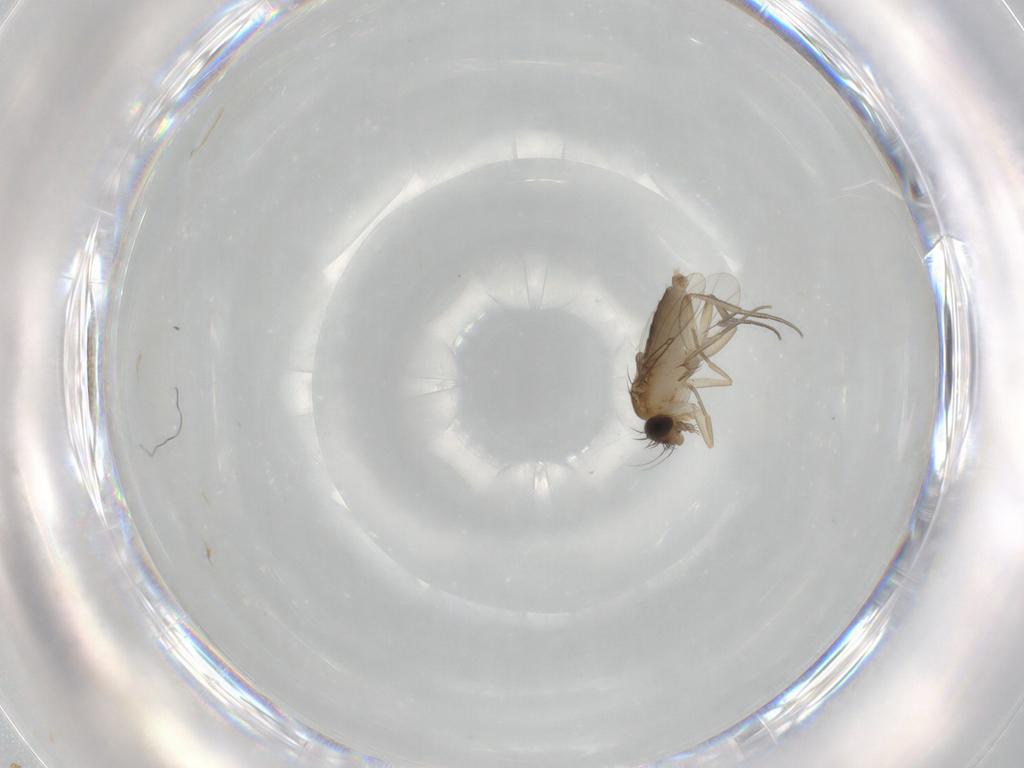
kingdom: Animalia
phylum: Arthropoda
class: Insecta
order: Diptera
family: Phoridae
